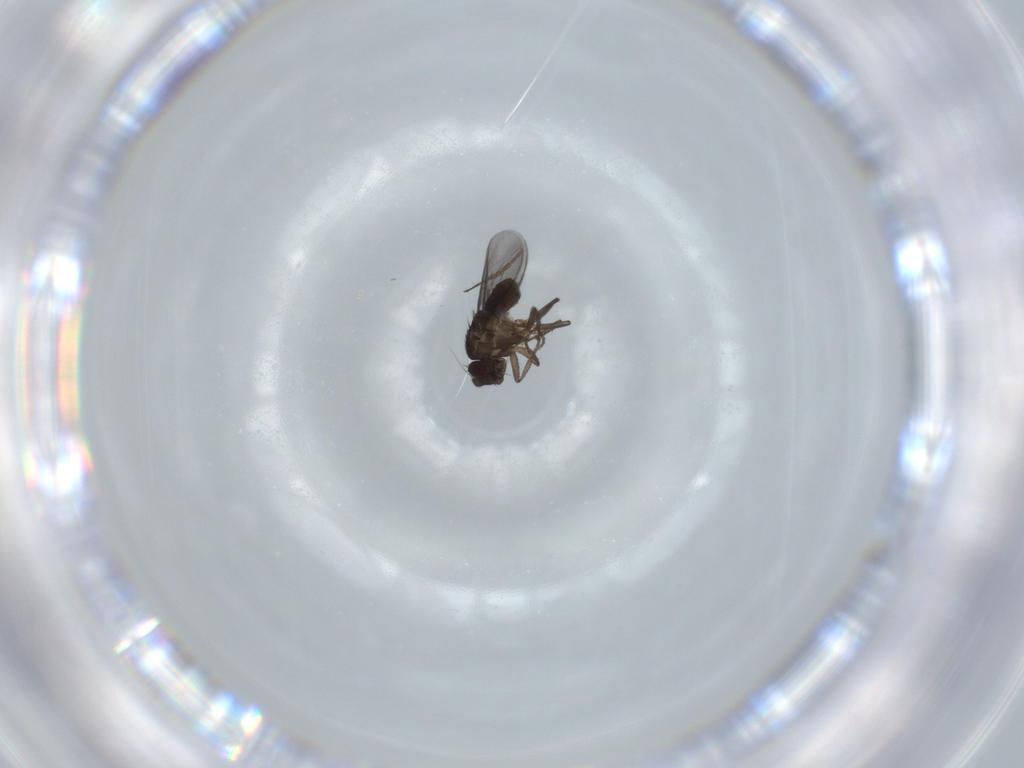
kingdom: Animalia
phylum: Arthropoda
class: Insecta
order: Diptera
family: Sphaeroceridae
